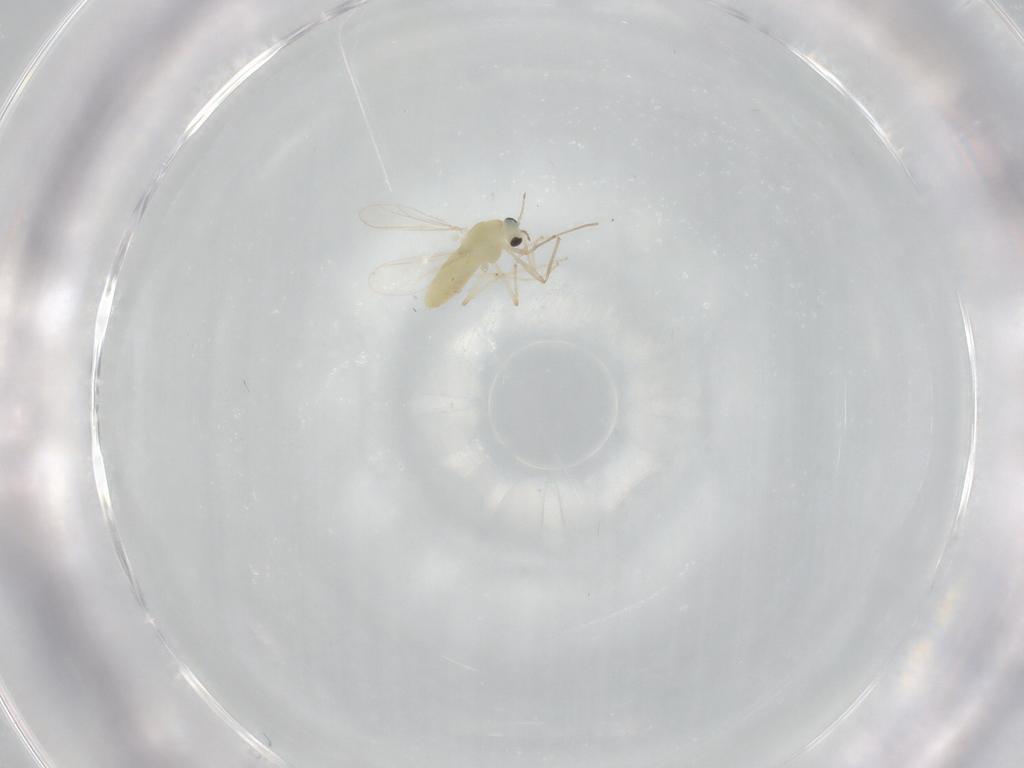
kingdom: Animalia
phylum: Arthropoda
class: Insecta
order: Diptera
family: Chironomidae
